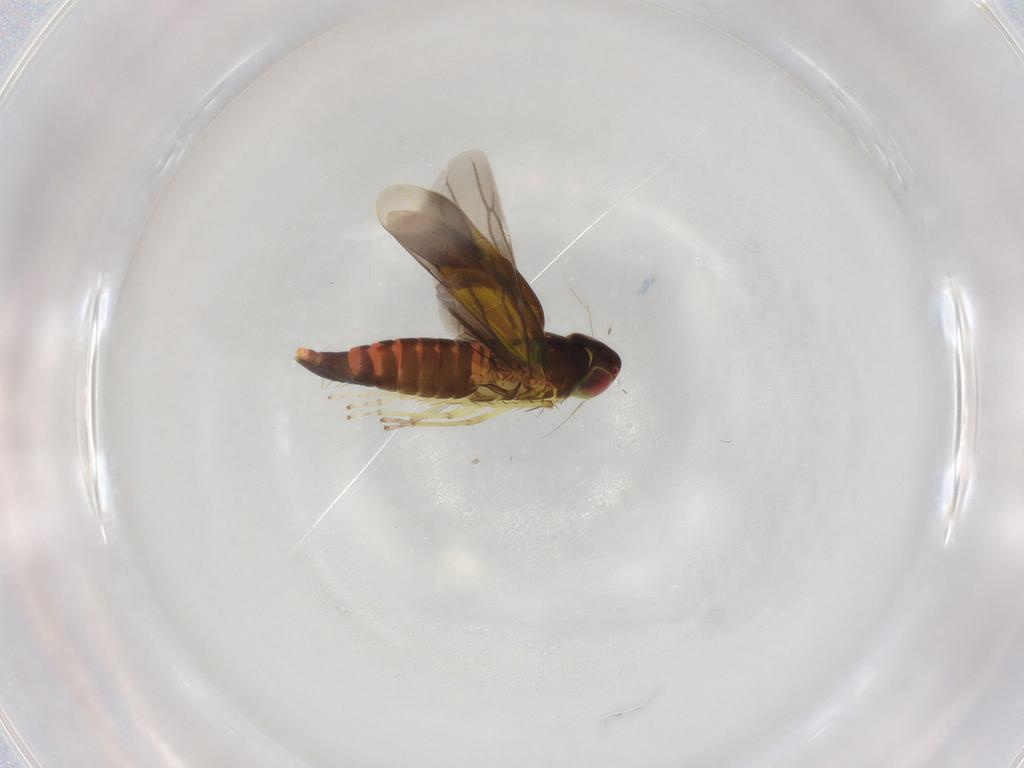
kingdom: Animalia
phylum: Arthropoda
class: Insecta
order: Hemiptera
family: Cicadellidae
